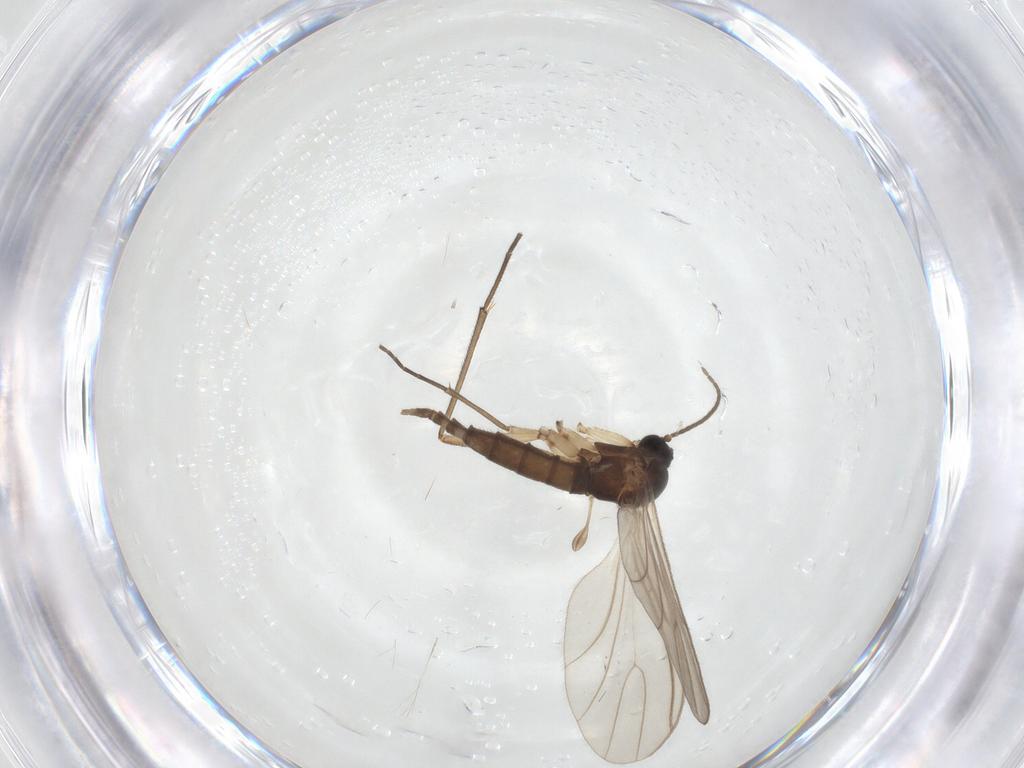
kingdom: Animalia
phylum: Arthropoda
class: Insecta
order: Diptera
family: Sciaridae
